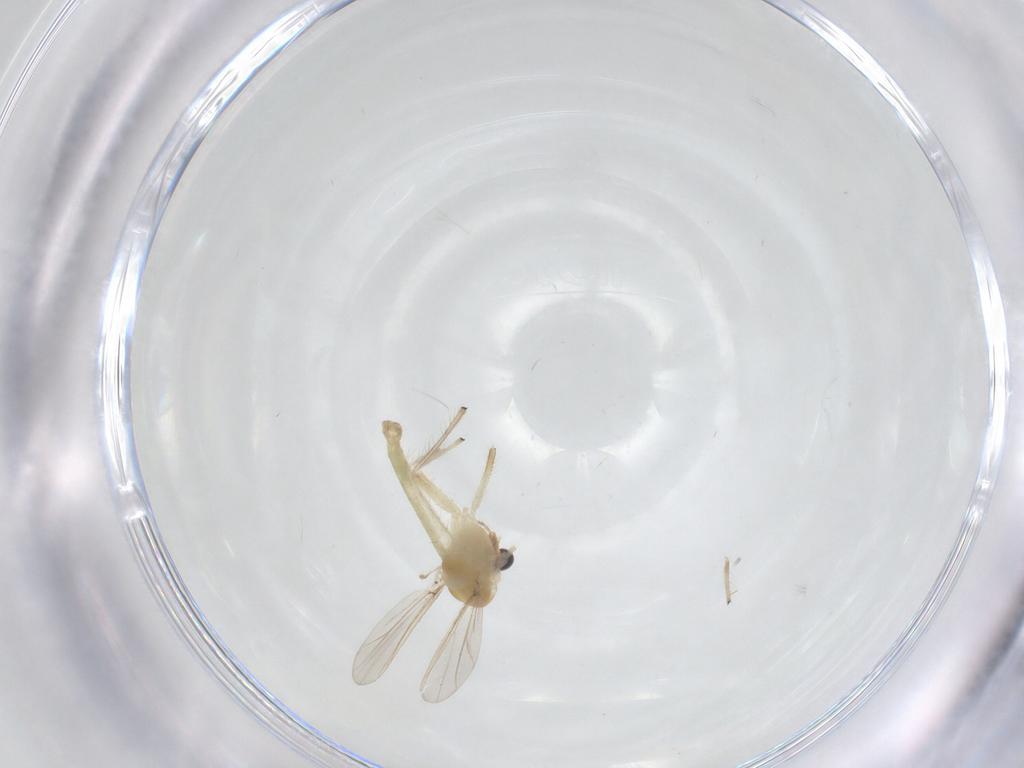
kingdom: Animalia
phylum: Arthropoda
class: Insecta
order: Diptera
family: Chironomidae
